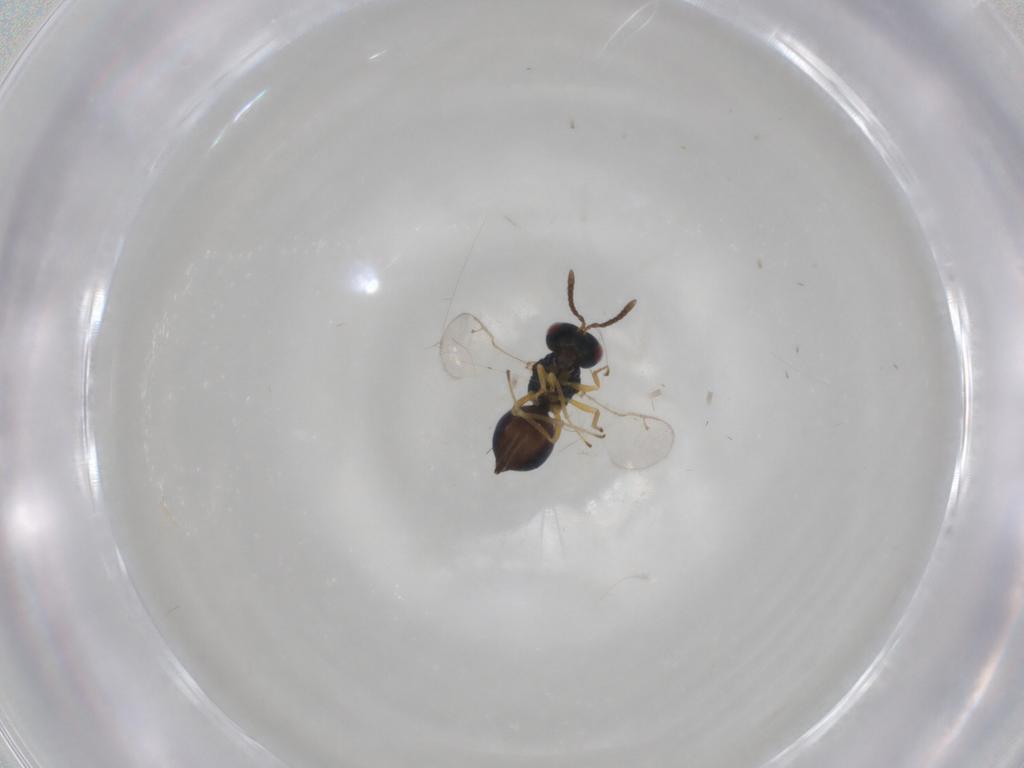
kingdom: Animalia
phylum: Arthropoda
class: Insecta
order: Hymenoptera
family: Pteromalidae
